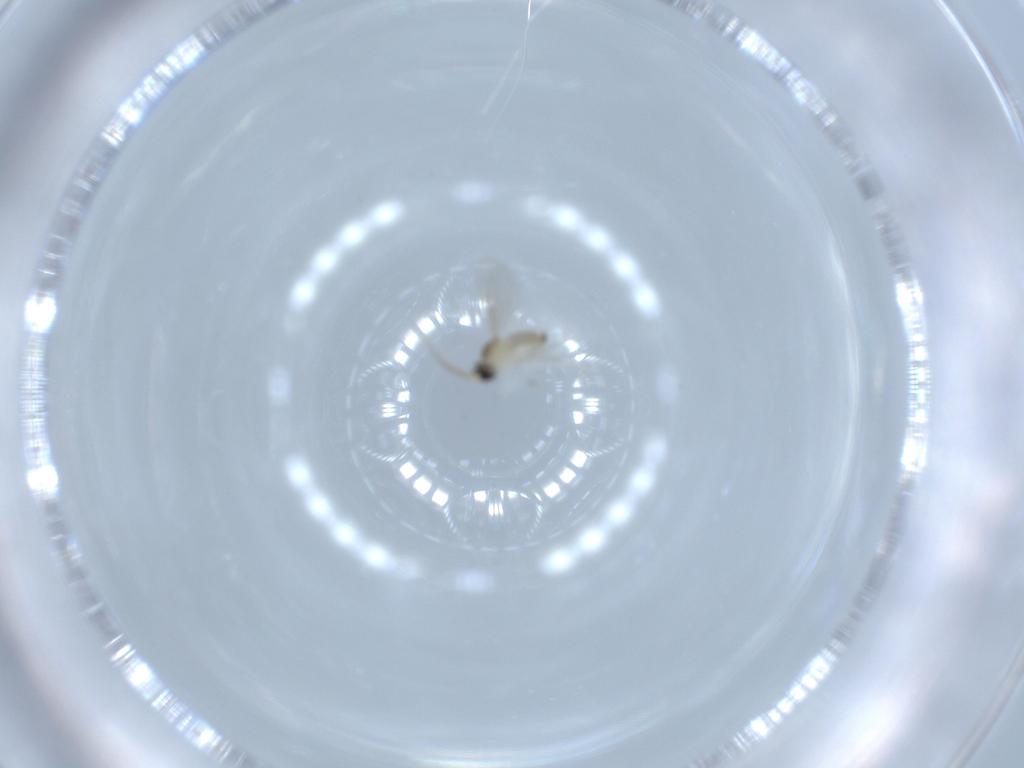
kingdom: Animalia
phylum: Arthropoda
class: Insecta
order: Diptera
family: Cecidomyiidae
